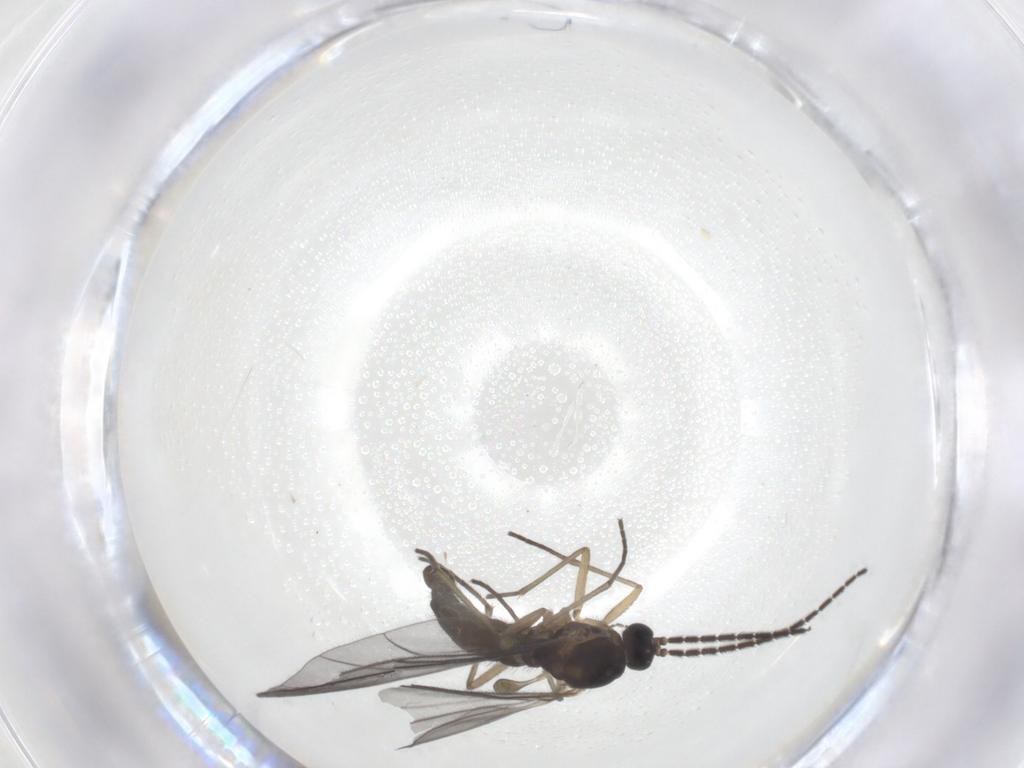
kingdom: Animalia
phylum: Arthropoda
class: Insecta
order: Diptera
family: Sciaridae
